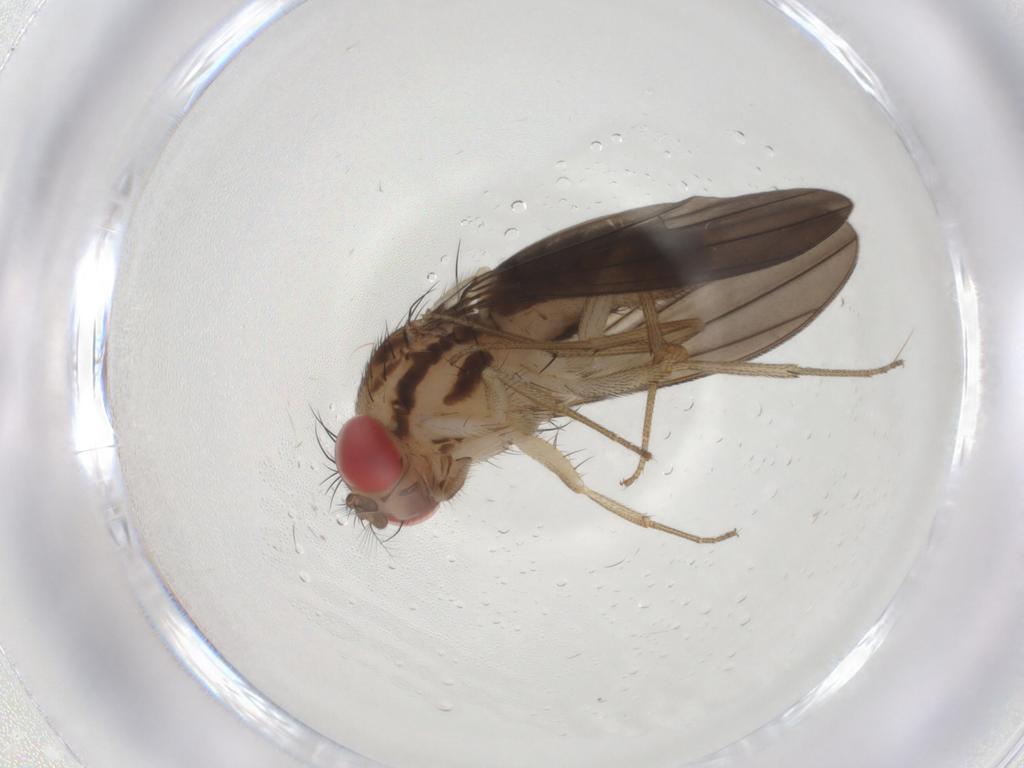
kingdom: Animalia
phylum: Arthropoda
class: Insecta
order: Diptera
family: Drosophilidae
